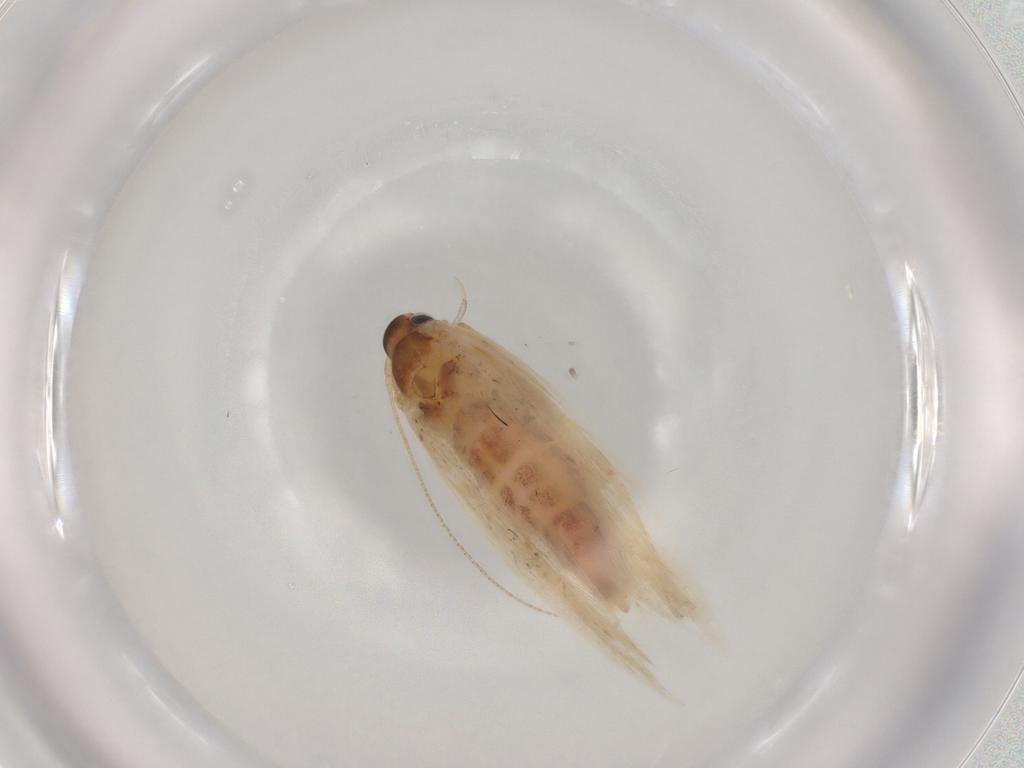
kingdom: Animalia
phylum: Arthropoda
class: Insecta
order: Lepidoptera
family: Gelechiidae
